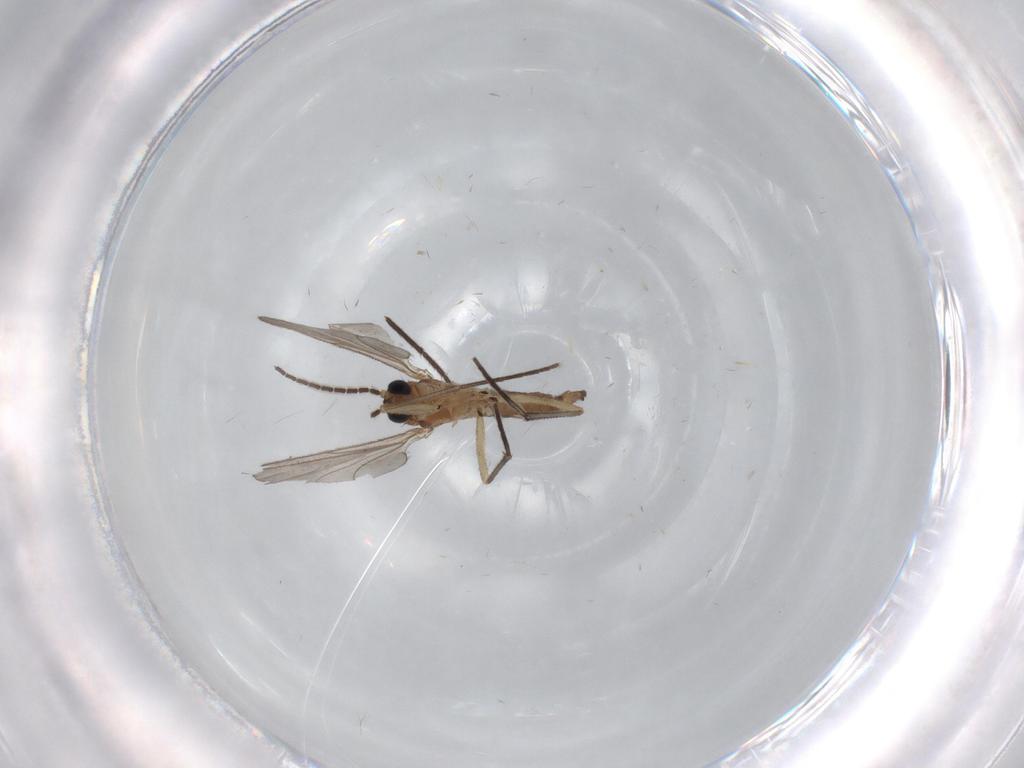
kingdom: Animalia
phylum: Arthropoda
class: Insecta
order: Diptera
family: Sciaridae
